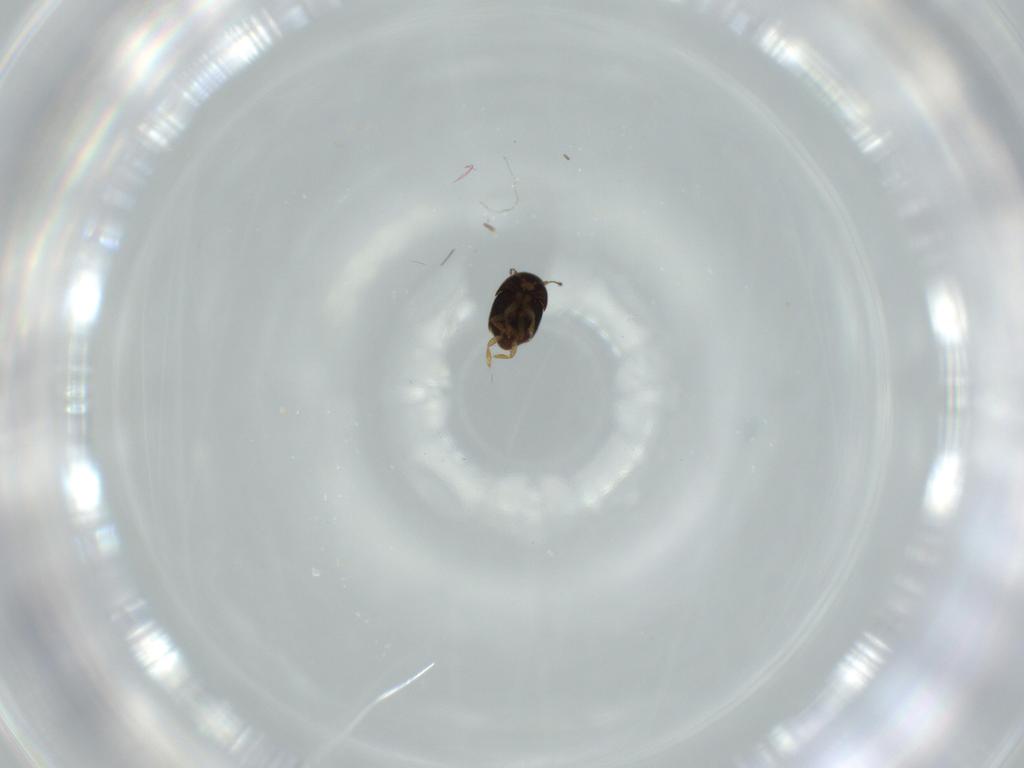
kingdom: Animalia
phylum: Arthropoda
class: Insecta
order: Coleoptera
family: Ptiliidae
